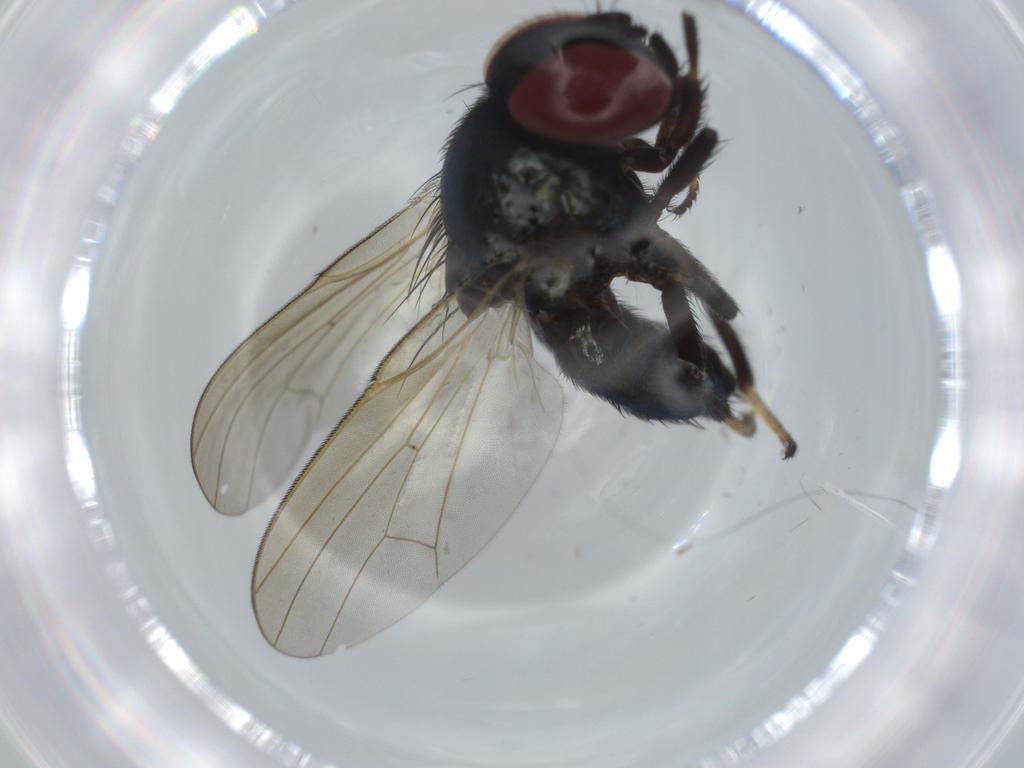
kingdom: Animalia
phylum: Arthropoda
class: Insecta
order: Diptera
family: Lonchaeidae
